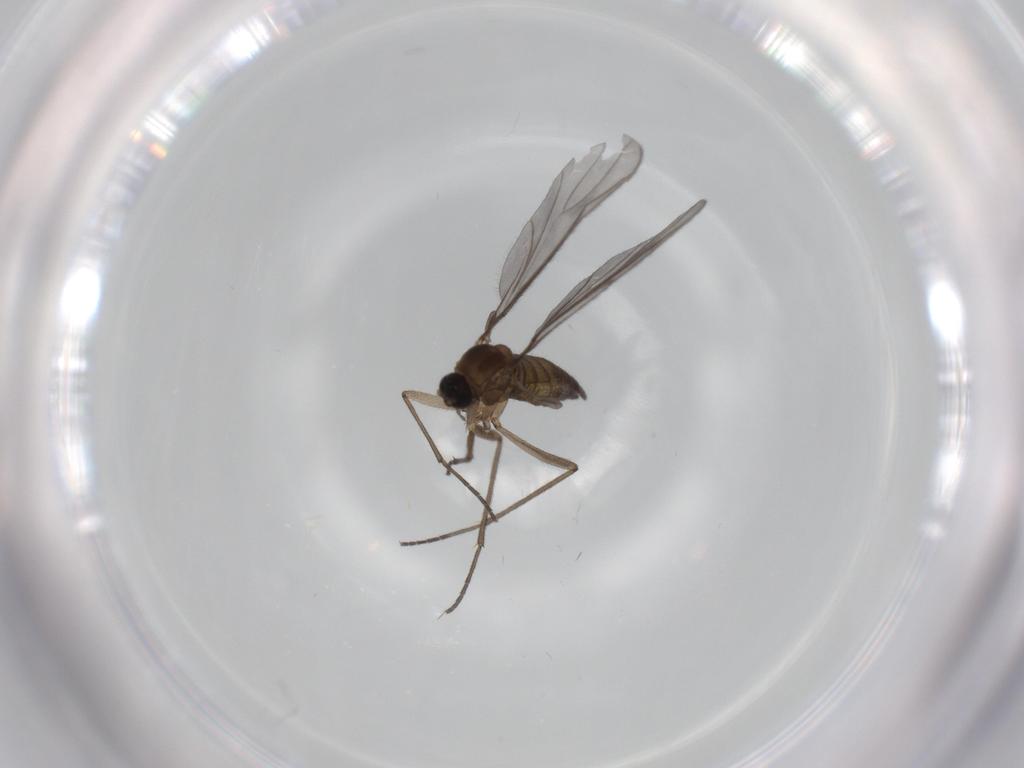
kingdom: Animalia
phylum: Arthropoda
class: Insecta
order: Diptera
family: Sciaridae
